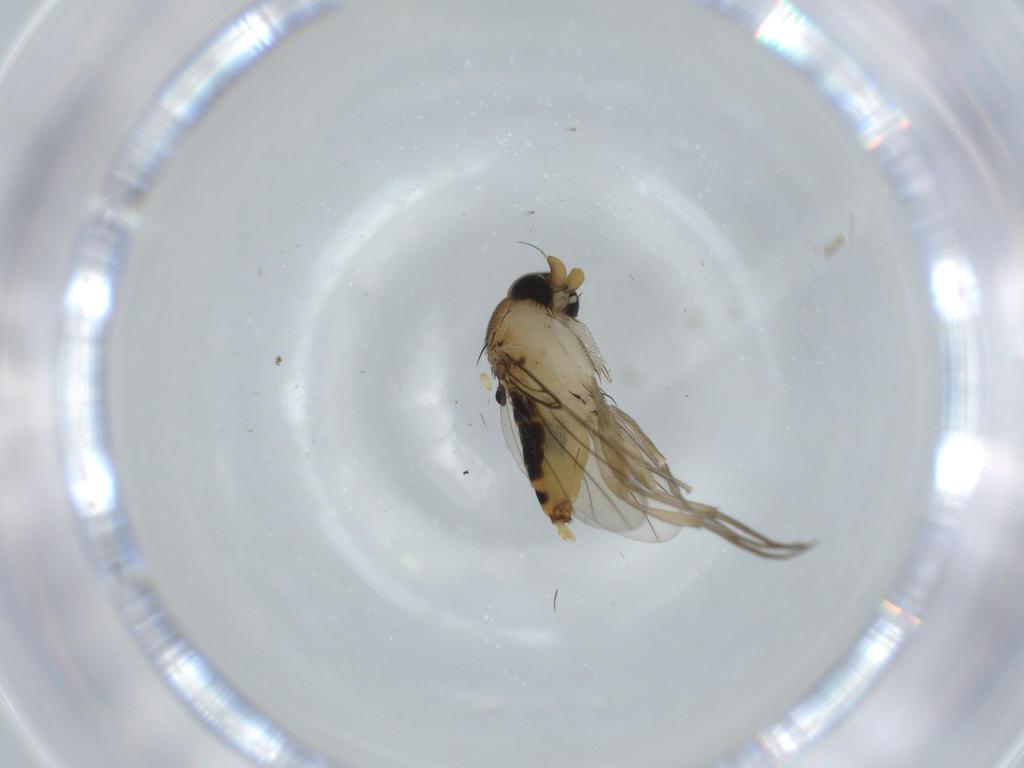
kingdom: Animalia
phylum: Arthropoda
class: Insecta
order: Diptera
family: Phoridae
